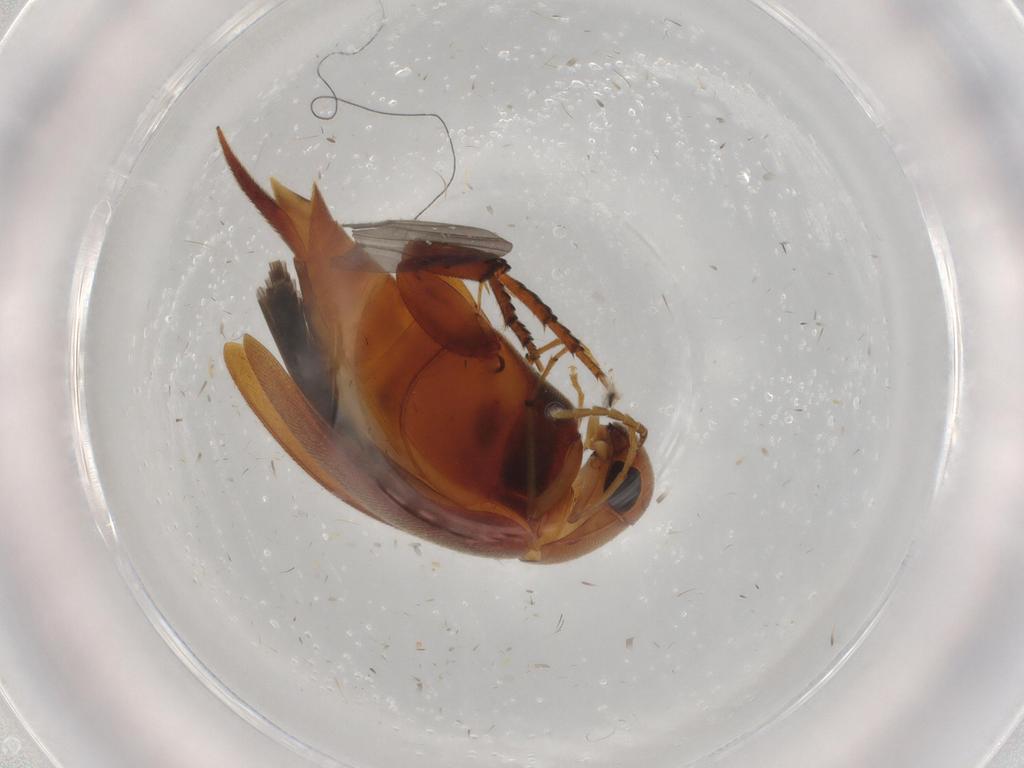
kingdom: Animalia
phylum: Arthropoda
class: Insecta
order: Coleoptera
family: Mordellidae
